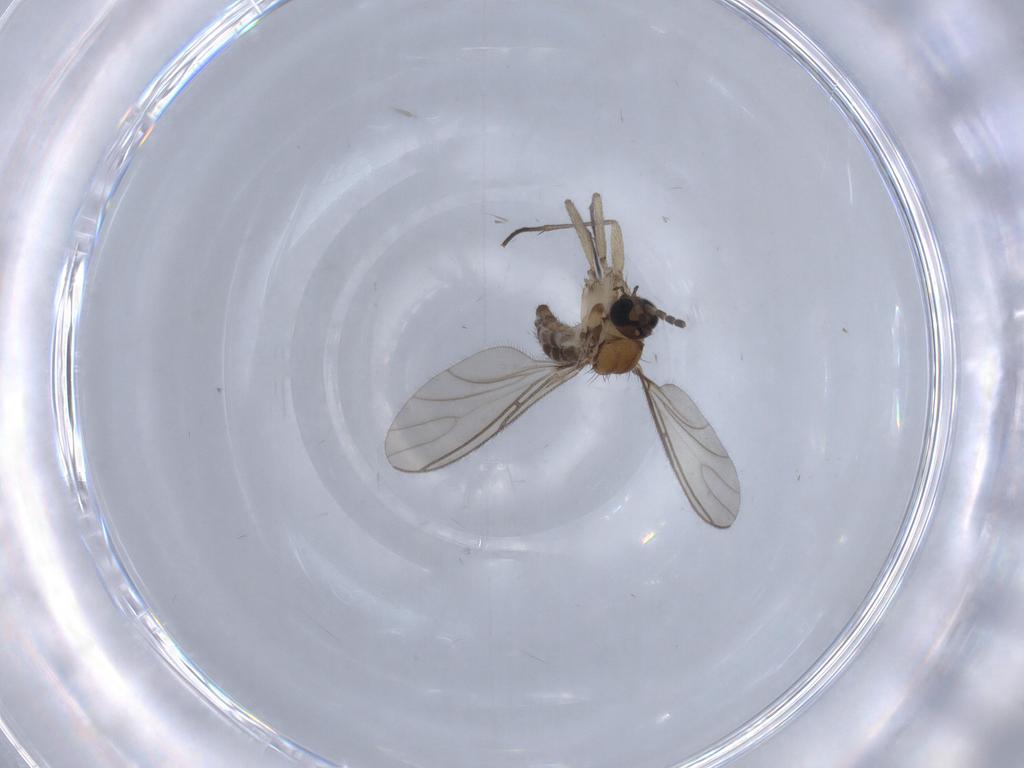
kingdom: Animalia
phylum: Arthropoda
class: Insecta
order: Diptera
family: Sciaridae
